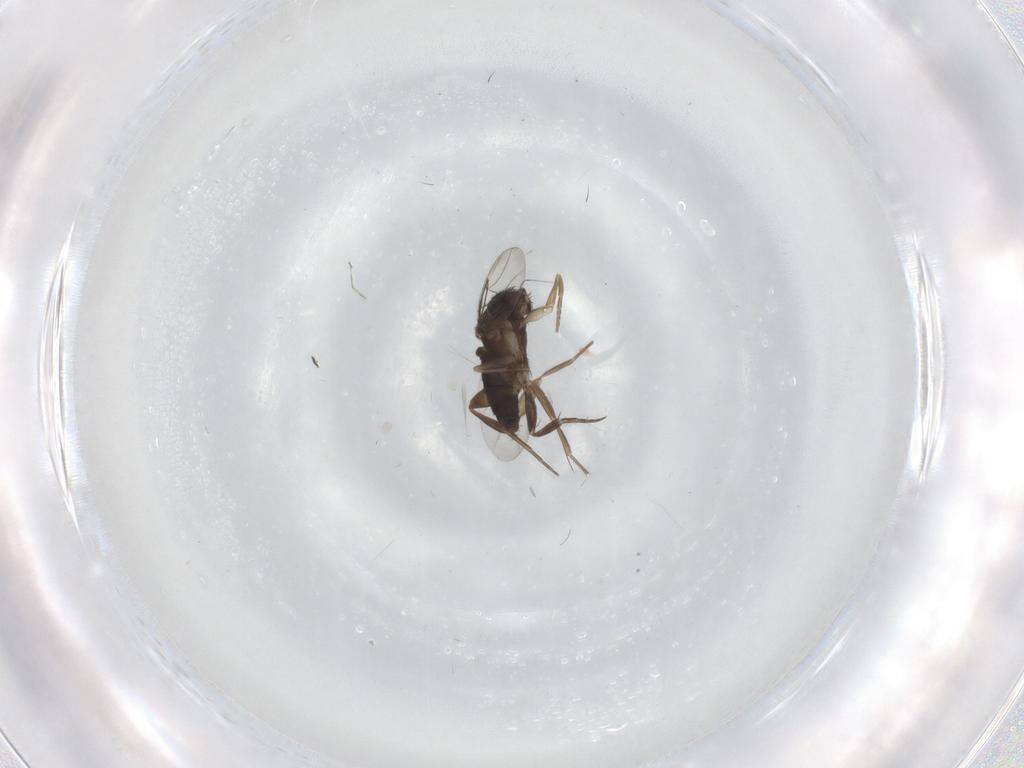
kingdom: Animalia
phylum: Arthropoda
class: Insecta
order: Diptera
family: Phoridae
